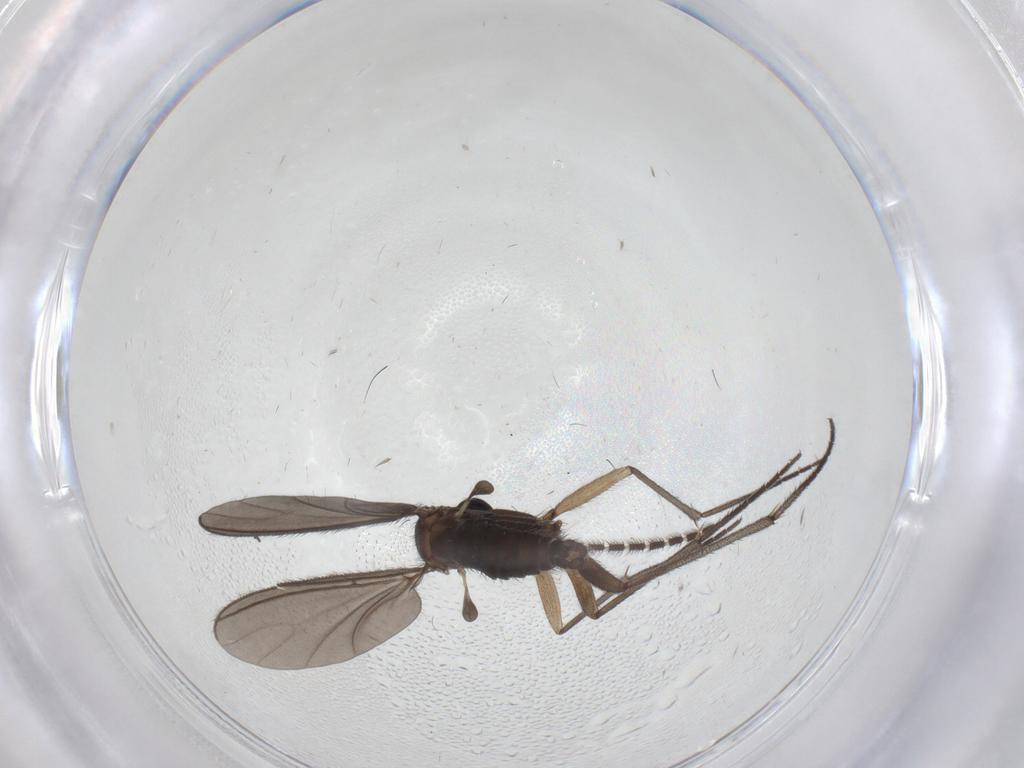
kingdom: Animalia
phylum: Arthropoda
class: Insecta
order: Diptera
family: Sciaridae
